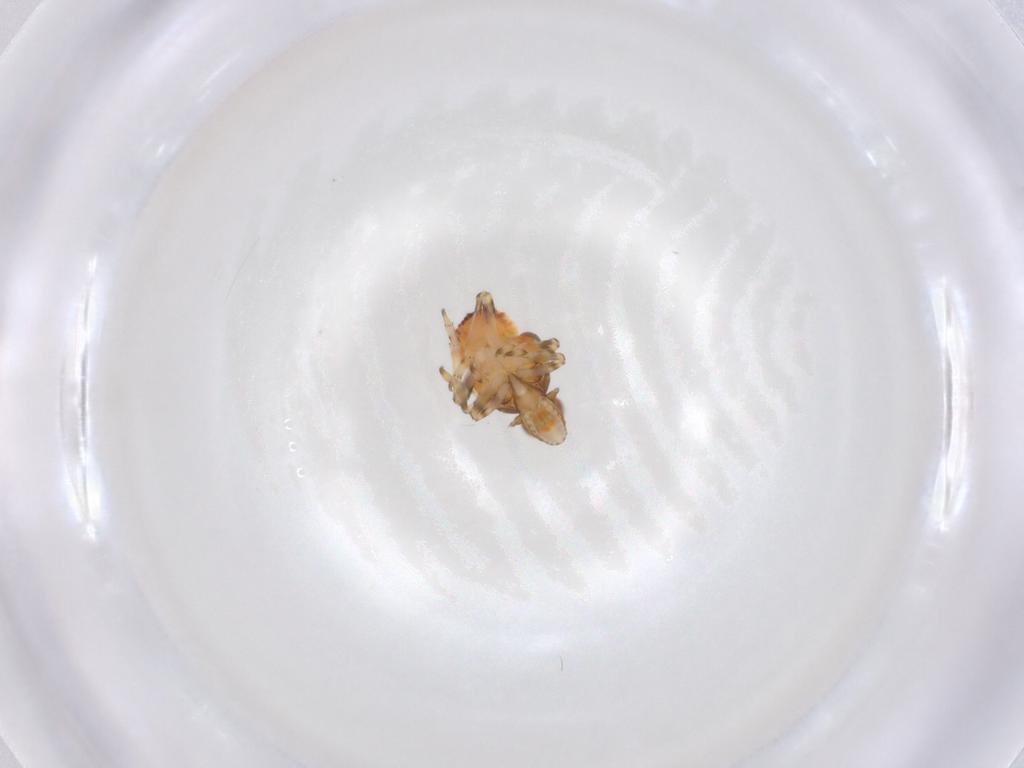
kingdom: Animalia
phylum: Arthropoda
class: Insecta
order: Hemiptera
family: Tropiduchidae
